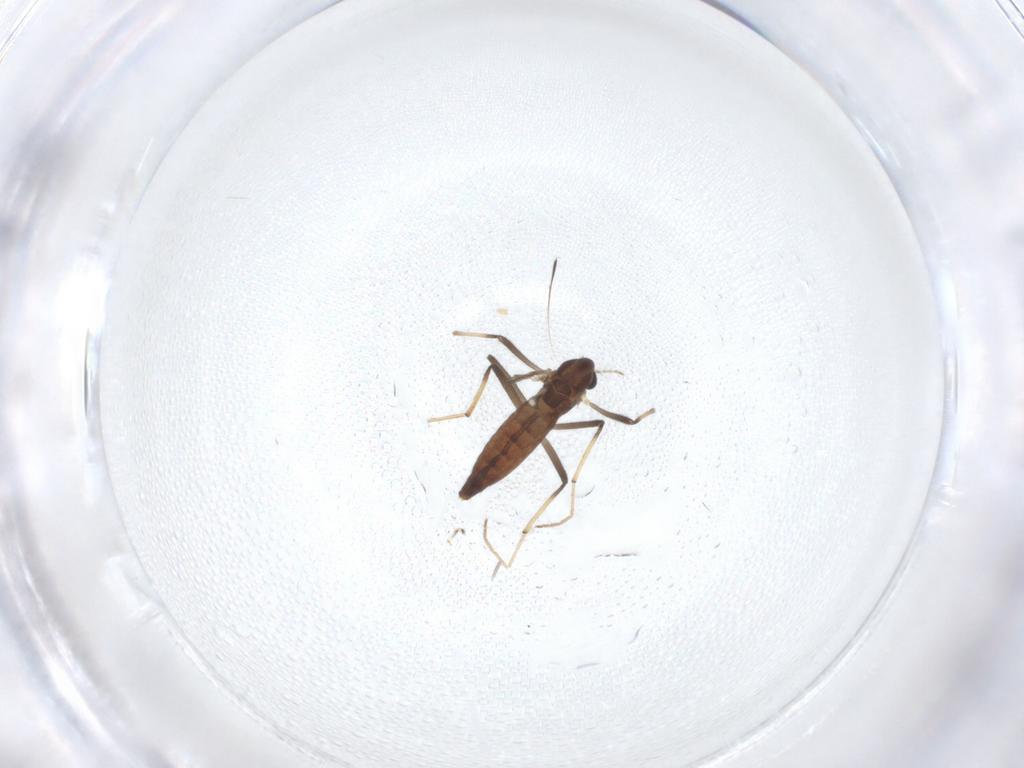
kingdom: Animalia
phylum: Arthropoda
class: Insecta
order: Diptera
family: Chironomidae
